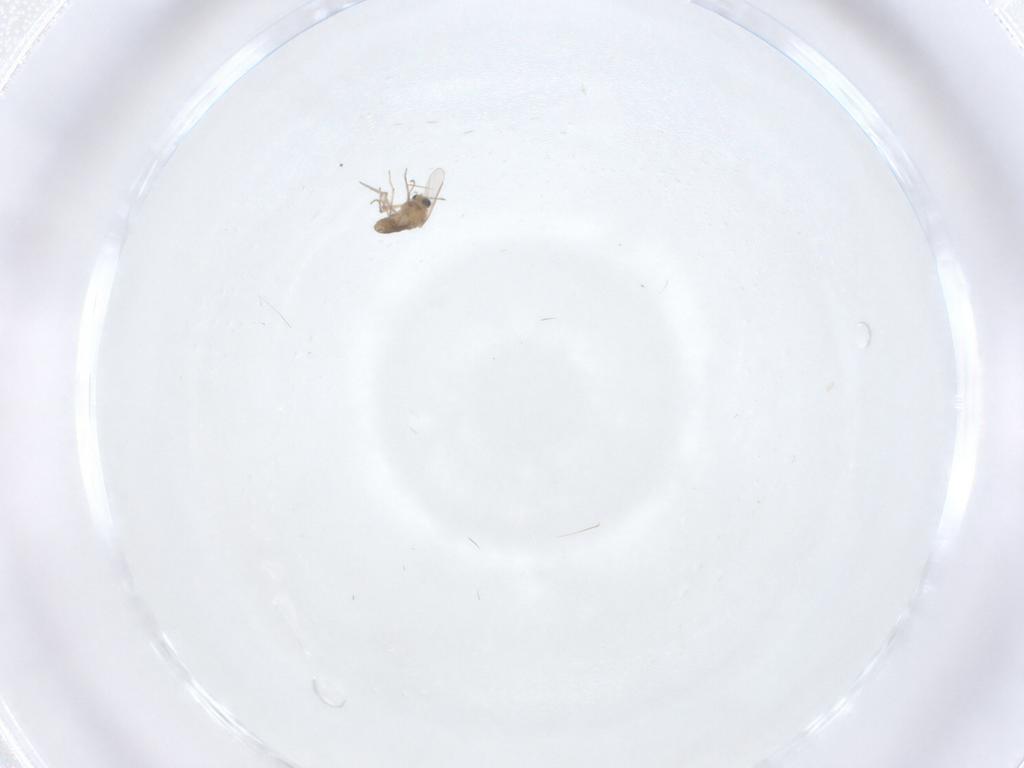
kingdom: Animalia
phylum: Arthropoda
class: Insecta
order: Diptera
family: Chironomidae
